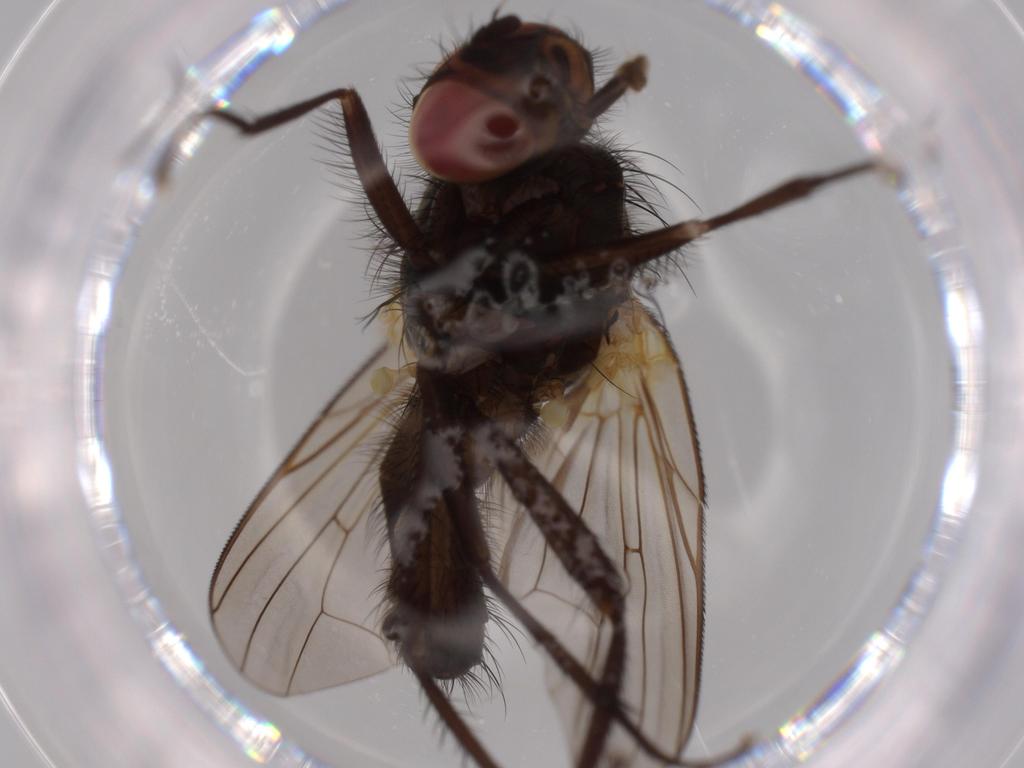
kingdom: Animalia
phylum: Arthropoda
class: Insecta
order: Diptera
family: Anthomyiidae
